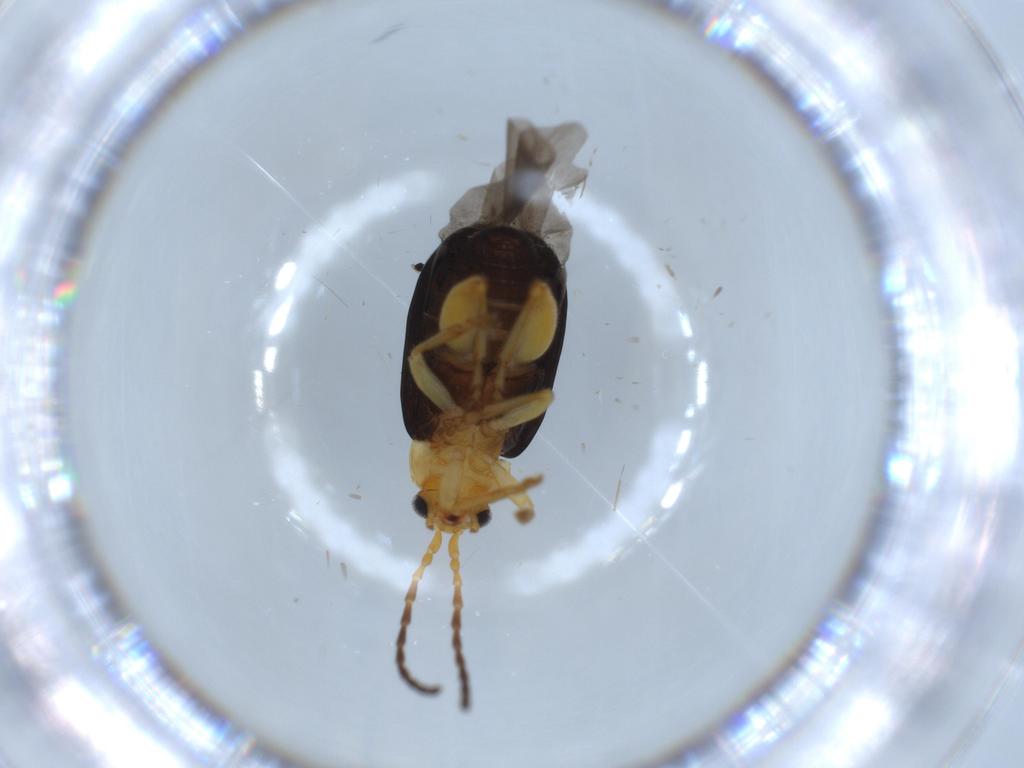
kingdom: Animalia
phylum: Arthropoda
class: Insecta
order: Coleoptera
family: Chrysomelidae
